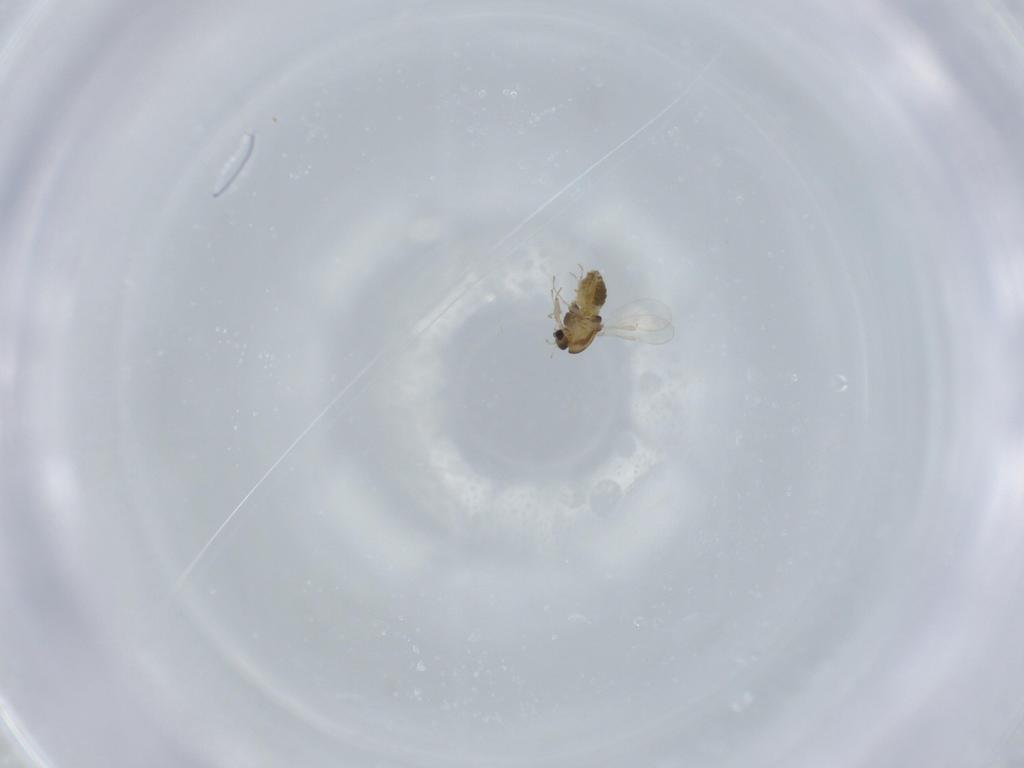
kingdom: Animalia
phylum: Arthropoda
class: Insecta
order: Diptera
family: Chironomidae
